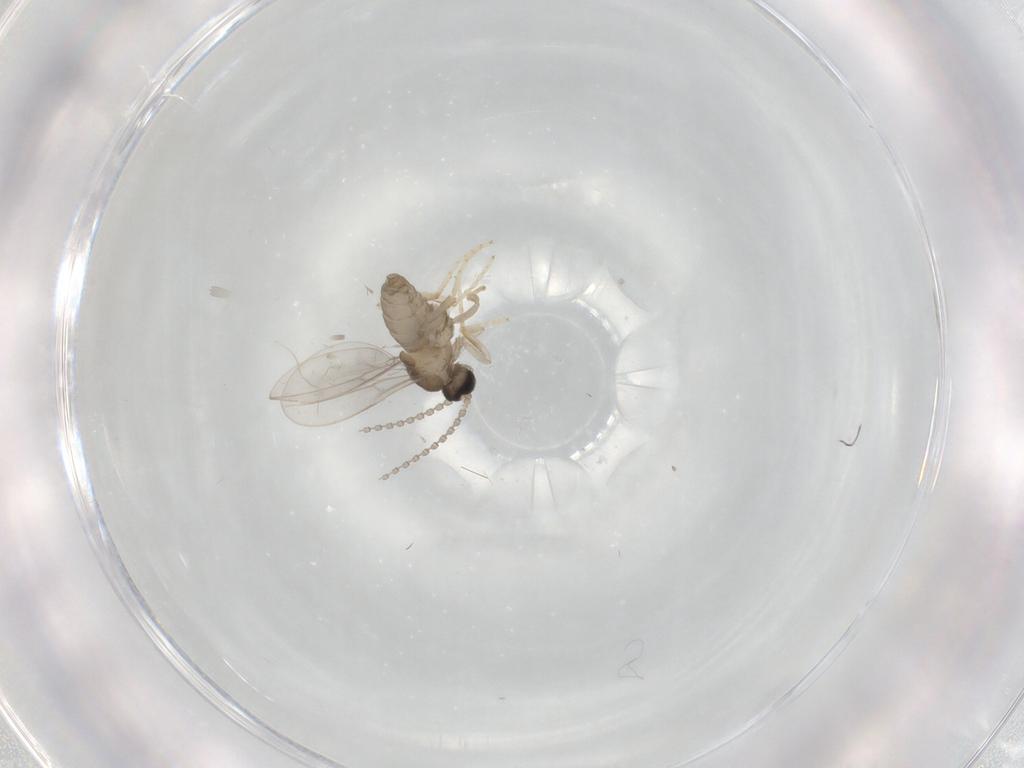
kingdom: Animalia
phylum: Arthropoda
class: Insecta
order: Diptera
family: Cecidomyiidae
